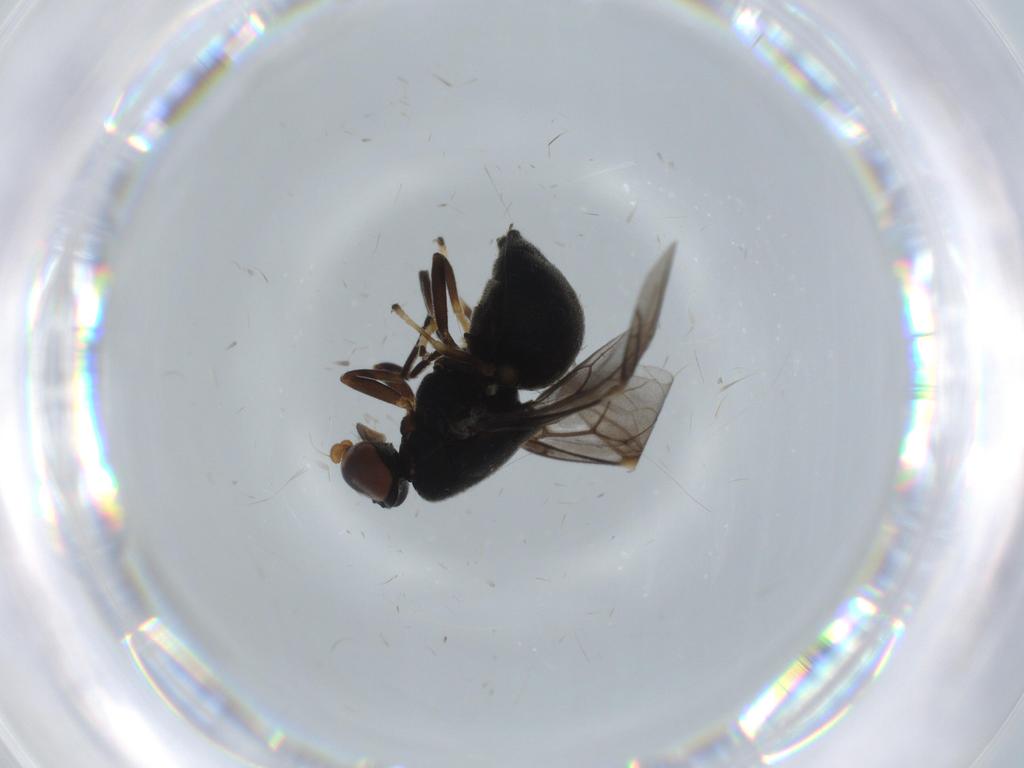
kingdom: Animalia
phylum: Arthropoda
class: Insecta
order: Diptera
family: Stratiomyidae
